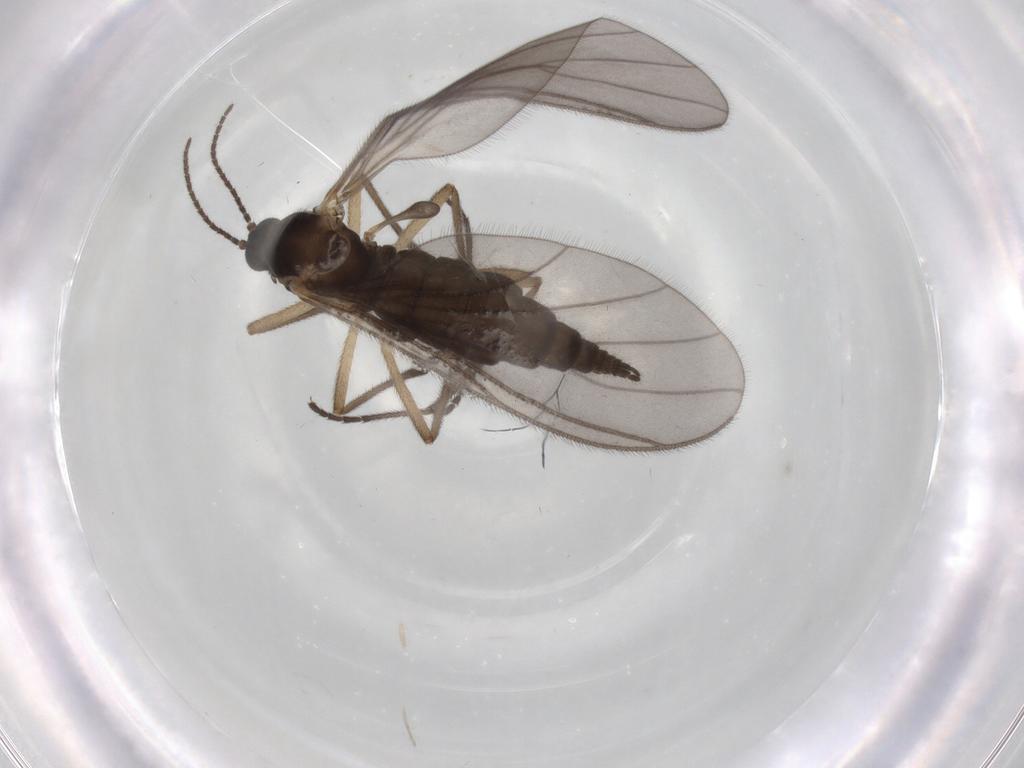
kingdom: Animalia
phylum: Arthropoda
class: Insecta
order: Diptera
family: Sciaridae
